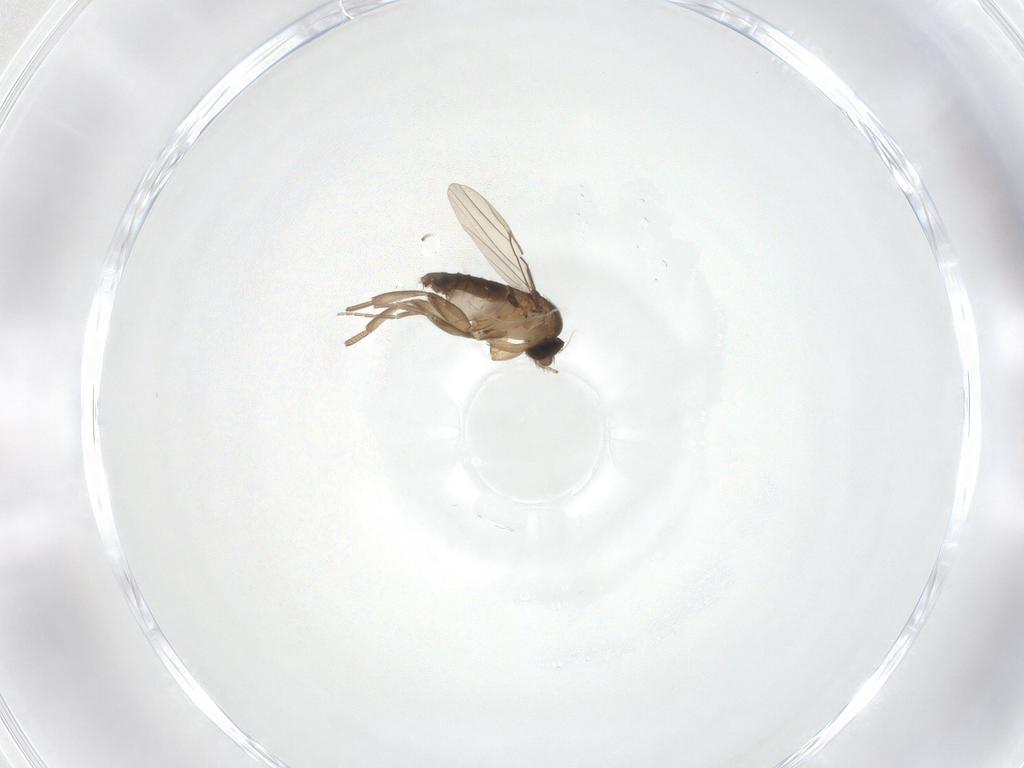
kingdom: Animalia
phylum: Arthropoda
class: Insecta
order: Diptera
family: Phoridae
